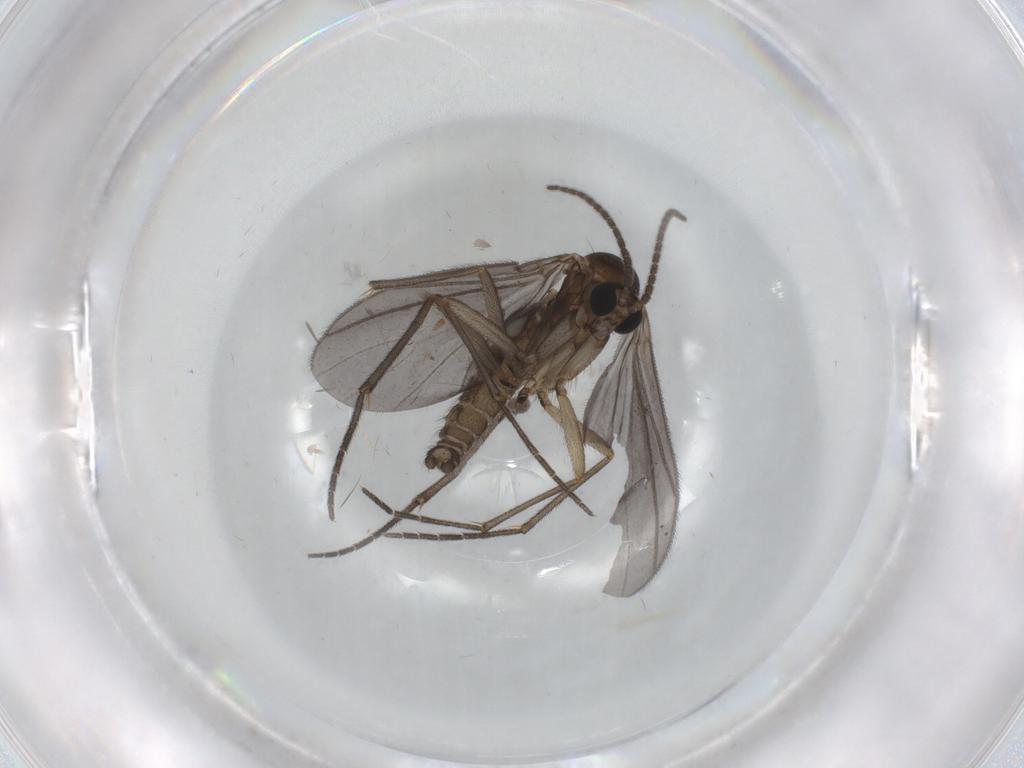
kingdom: Animalia
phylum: Arthropoda
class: Insecta
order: Diptera
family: Sciaridae
